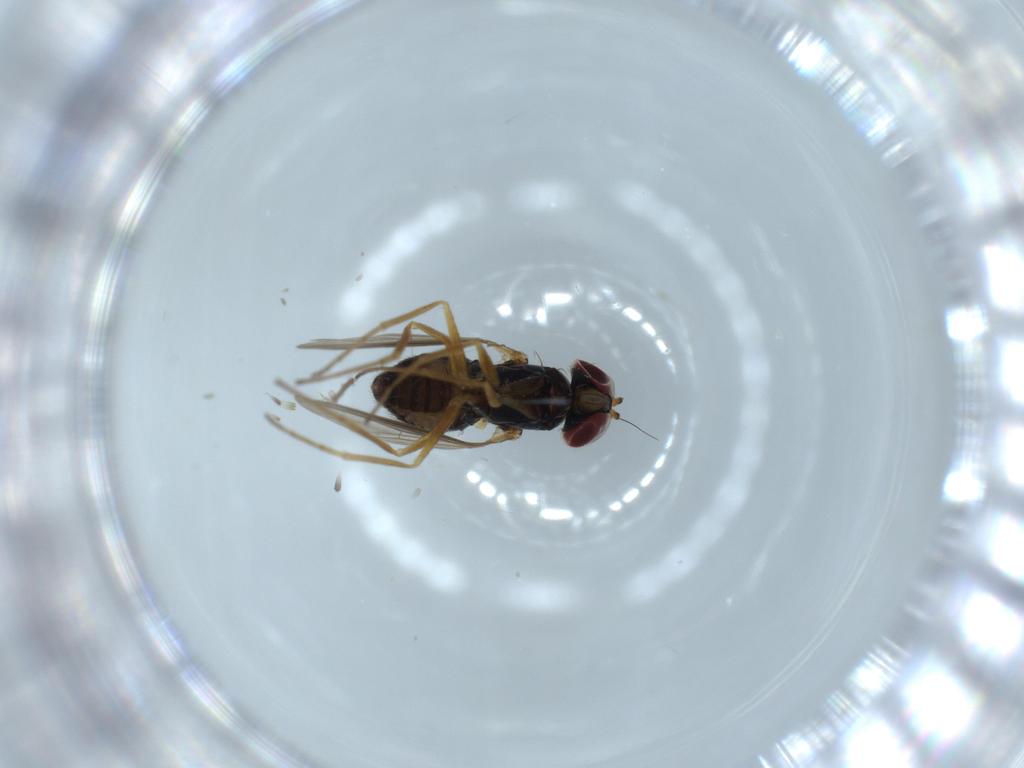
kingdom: Animalia
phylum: Arthropoda
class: Insecta
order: Diptera
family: Dolichopodidae
